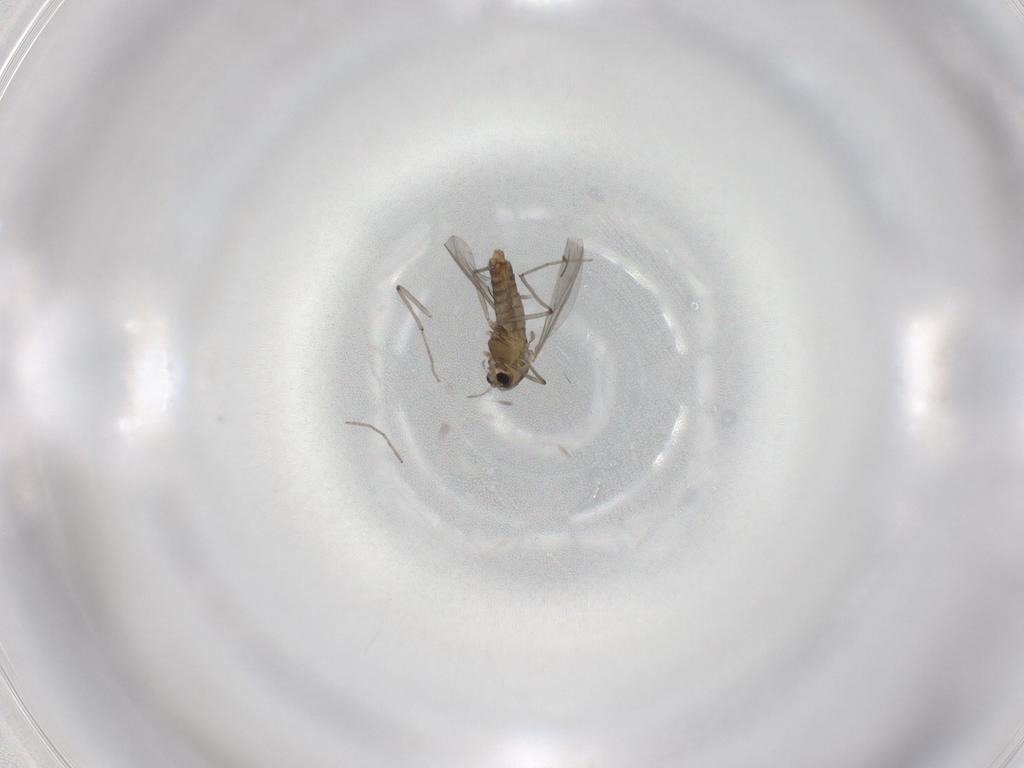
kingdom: Animalia
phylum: Arthropoda
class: Insecta
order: Diptera
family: Chironomidae
